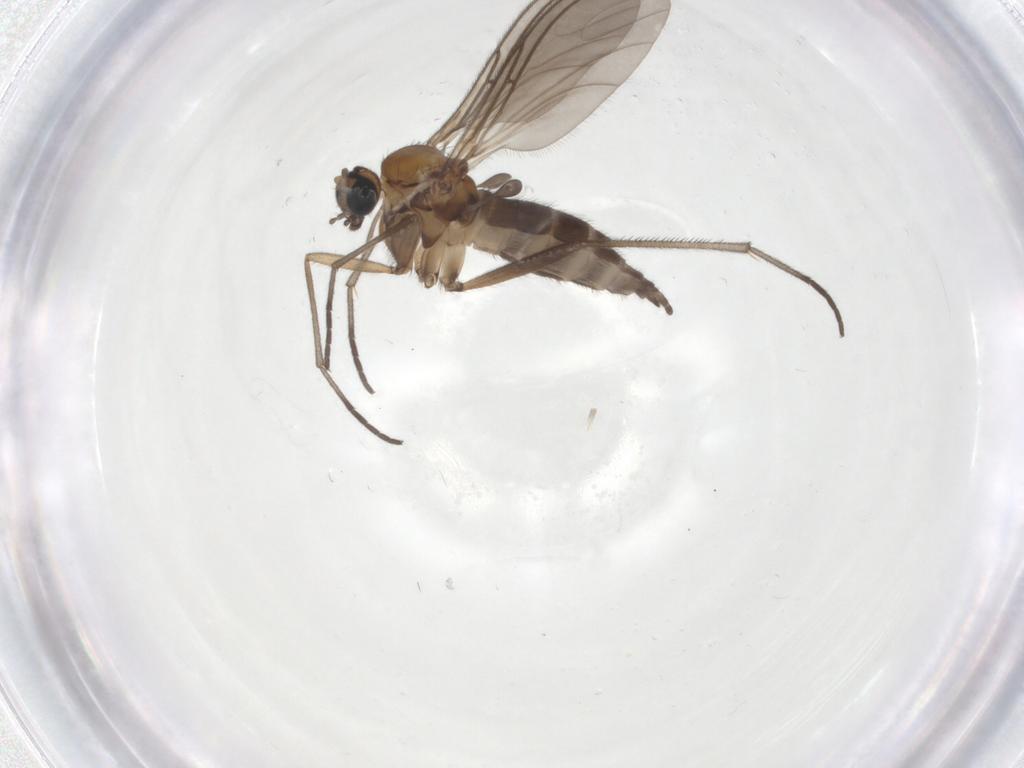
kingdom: Animalia
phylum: Arthropoda
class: Insecta
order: Diptera
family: Sciaridae
